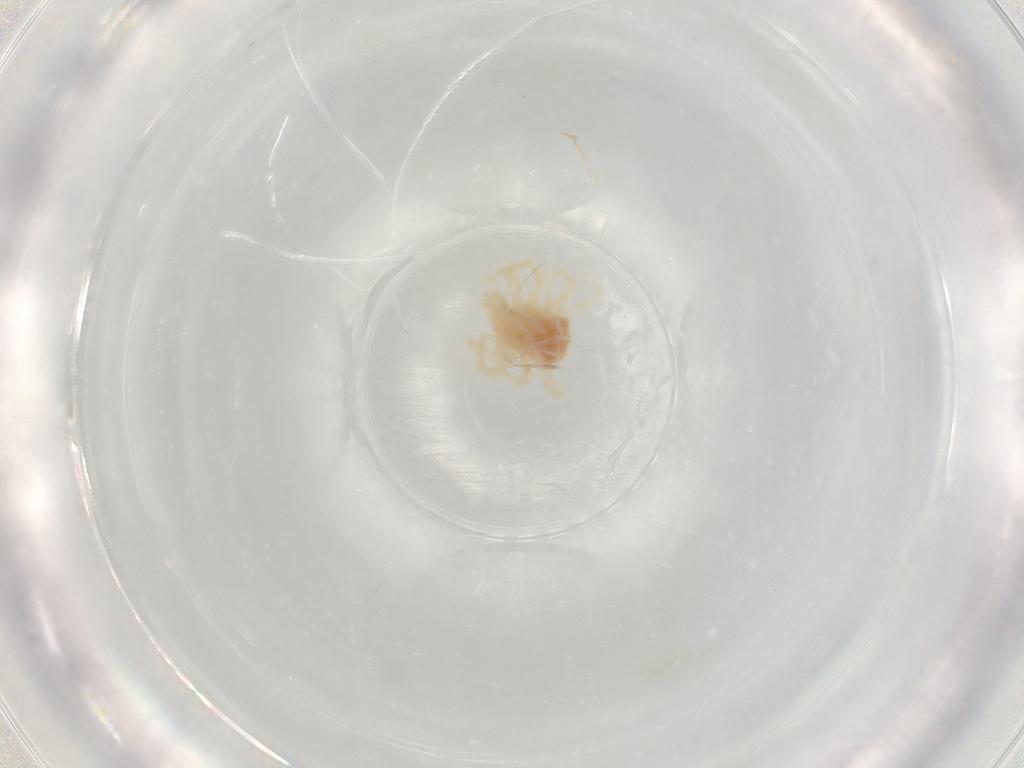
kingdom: Animalia
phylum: Arthropoda
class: Arachnida
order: Trombidiformes
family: Anystidae
